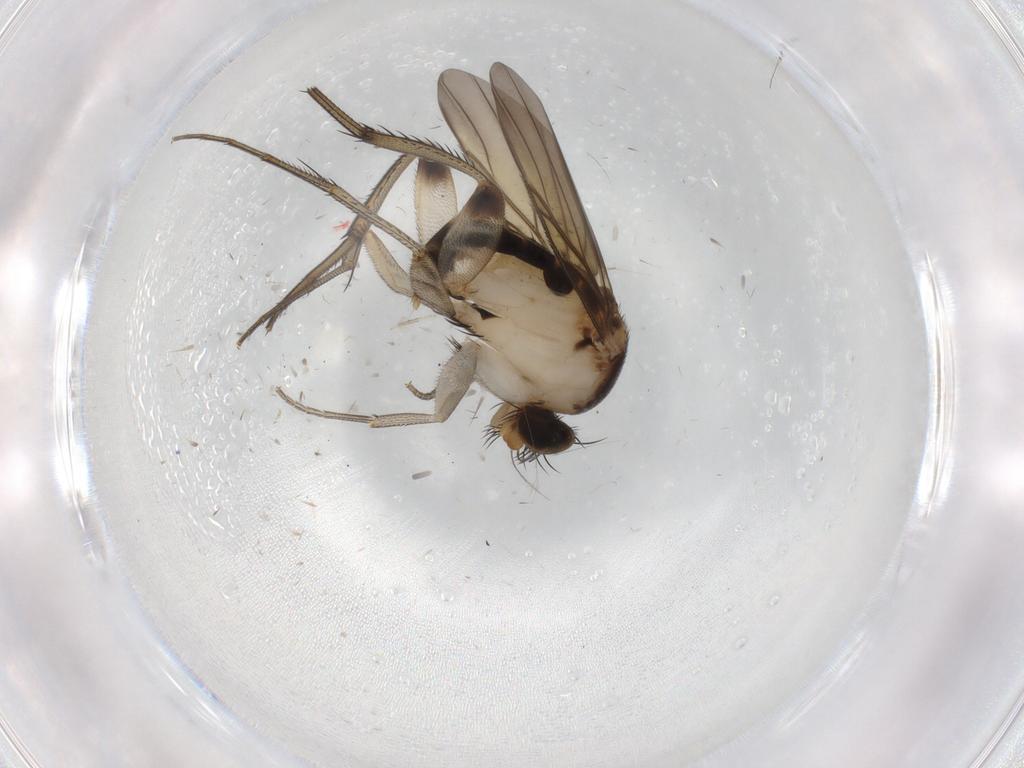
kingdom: Animalia
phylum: Arthropoda
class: Insecta
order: Diptera
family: Phoridae
